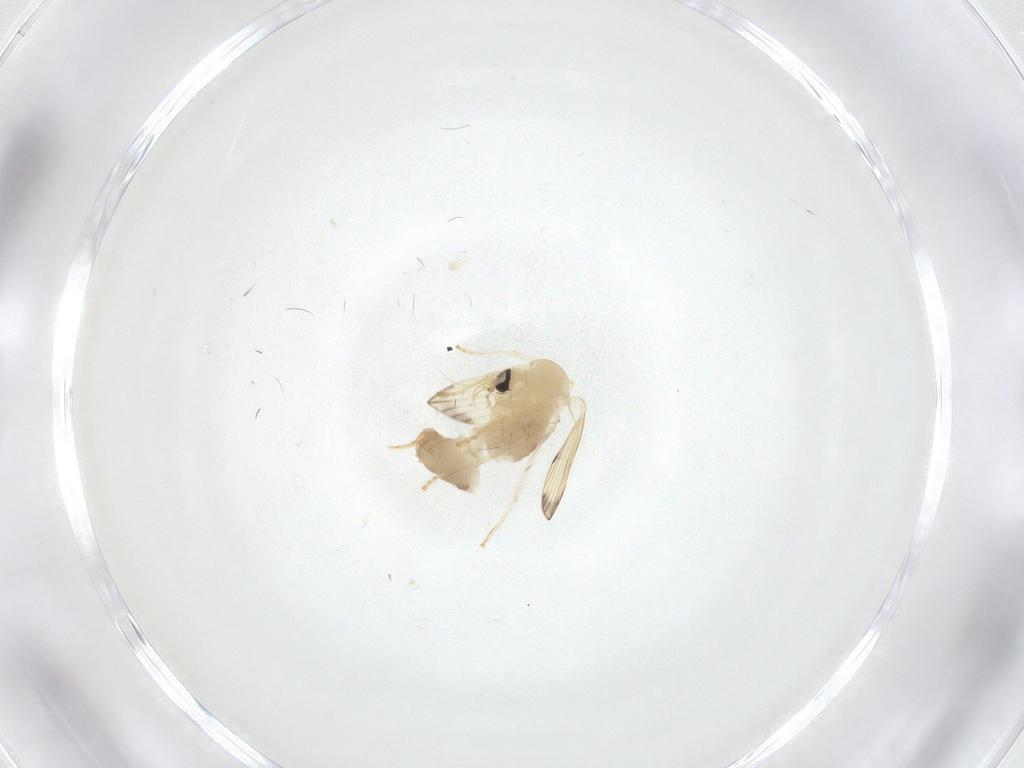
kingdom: Animalia
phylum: Arthropoda
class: Insecta
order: Diptera
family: Psychodidae
